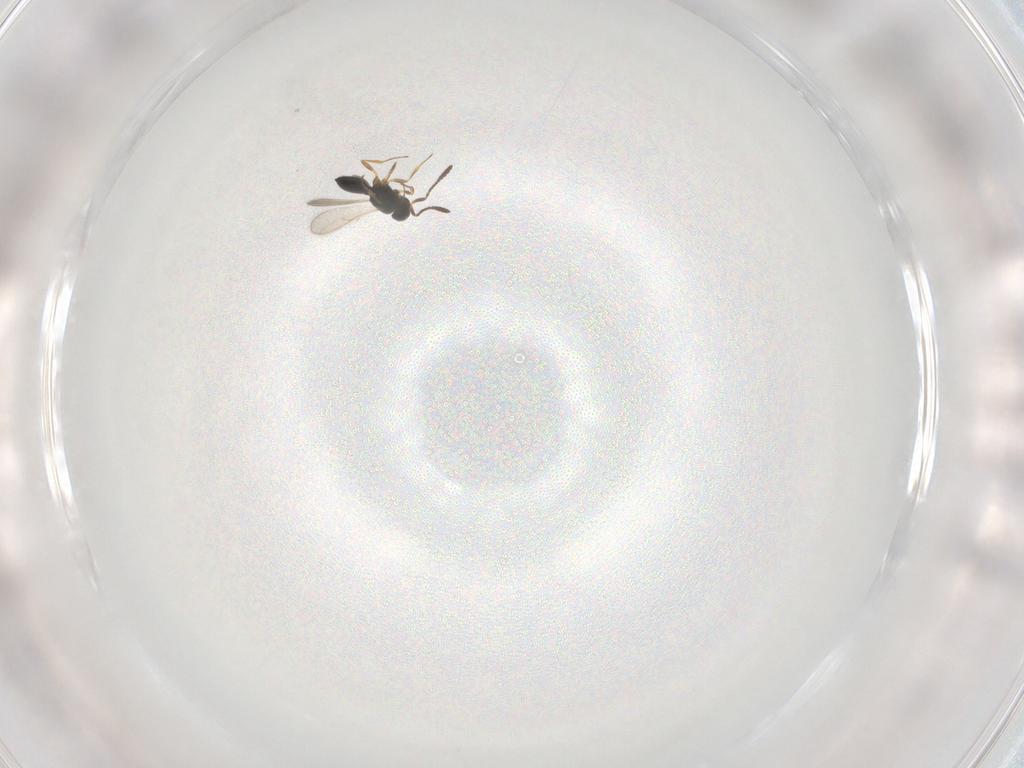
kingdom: Animalia
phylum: Arthropoda
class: Insecta
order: Hymenoptera
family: Scelionidae
